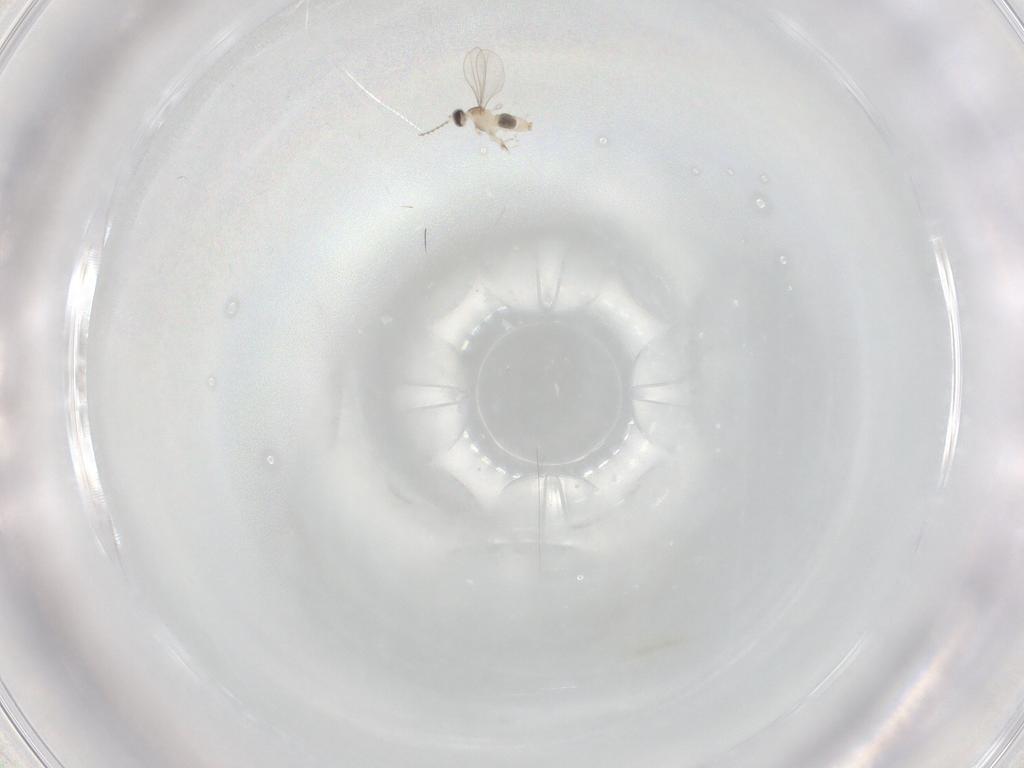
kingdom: Animalia
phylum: Arthropoda
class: Insecta
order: Diptera
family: Cecidomyiidae
